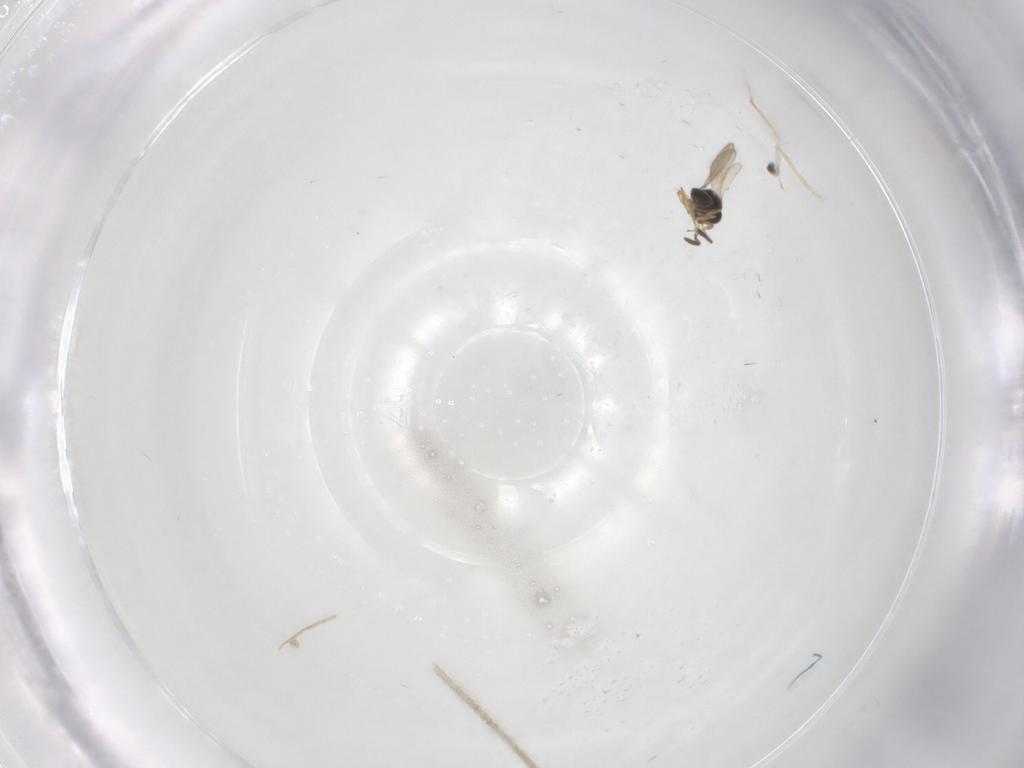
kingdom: Animalia
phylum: Arthropoda
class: Insecta
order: Hymenoptera
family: Scelionidae
